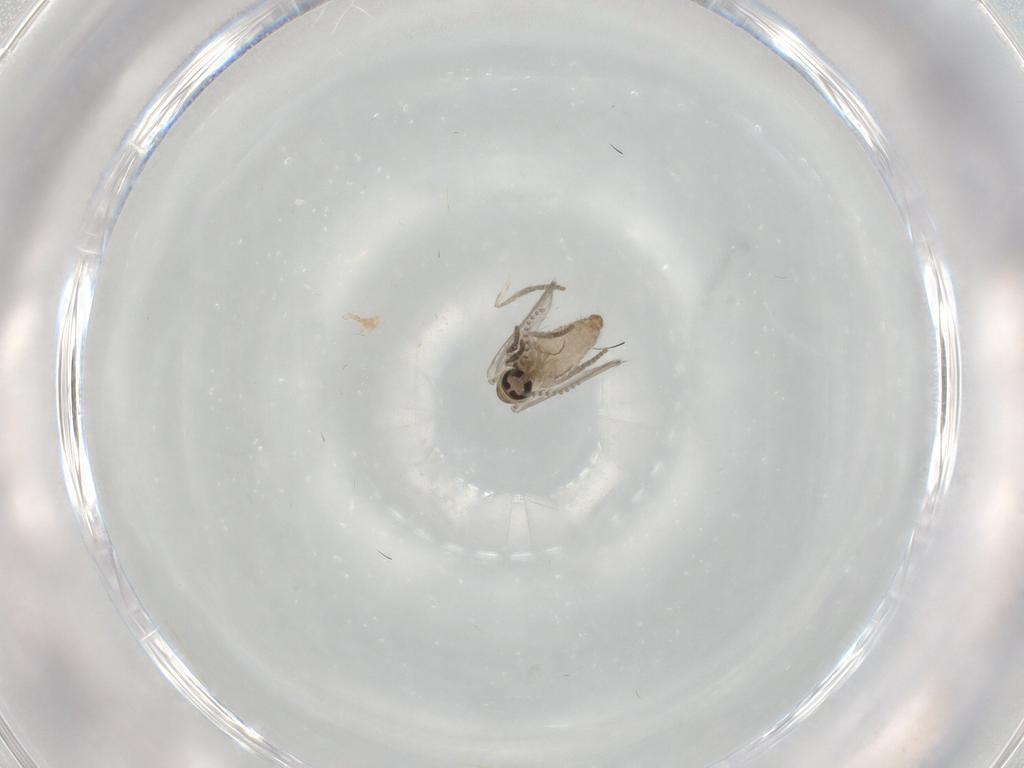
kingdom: Animalia
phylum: Arthropoda
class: Insecta
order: Diptera
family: Psychodidae
